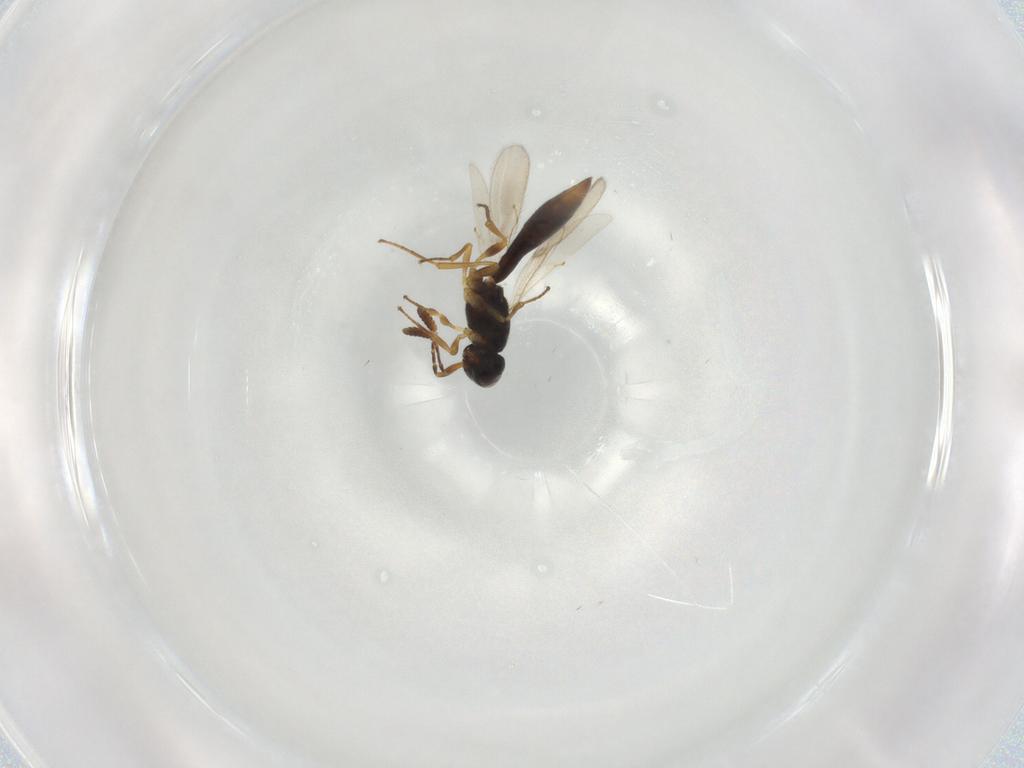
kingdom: Animalia
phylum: Arthropoda
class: Insecta
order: Hymenoptera
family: Scelionidae
